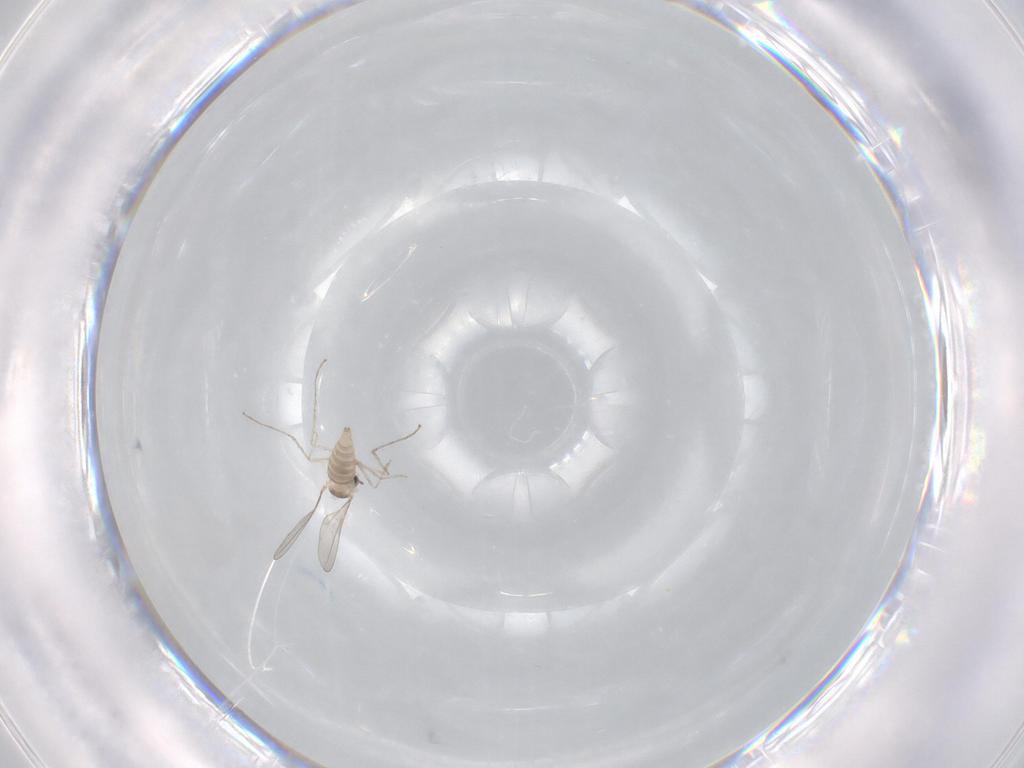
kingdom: Animalia
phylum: Arthropoda
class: Insecta
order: Diptera
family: Cecidomyiidae
